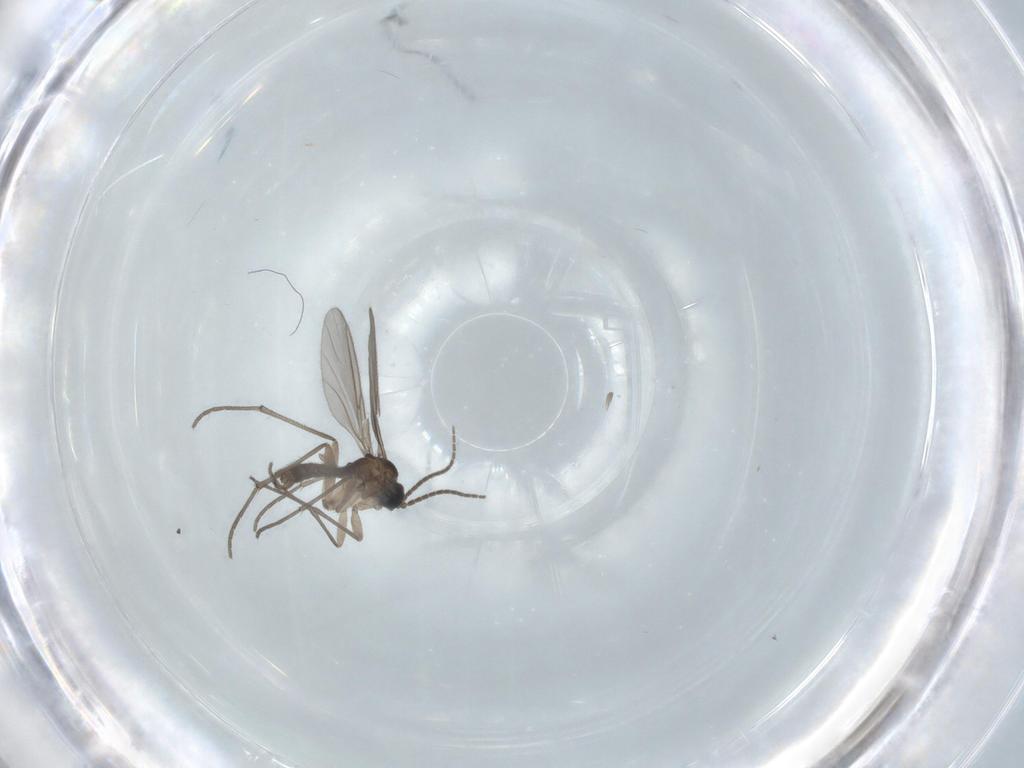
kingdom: Animalia
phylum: Arthropoda
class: Insecta
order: Diptera
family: Sciaridae
